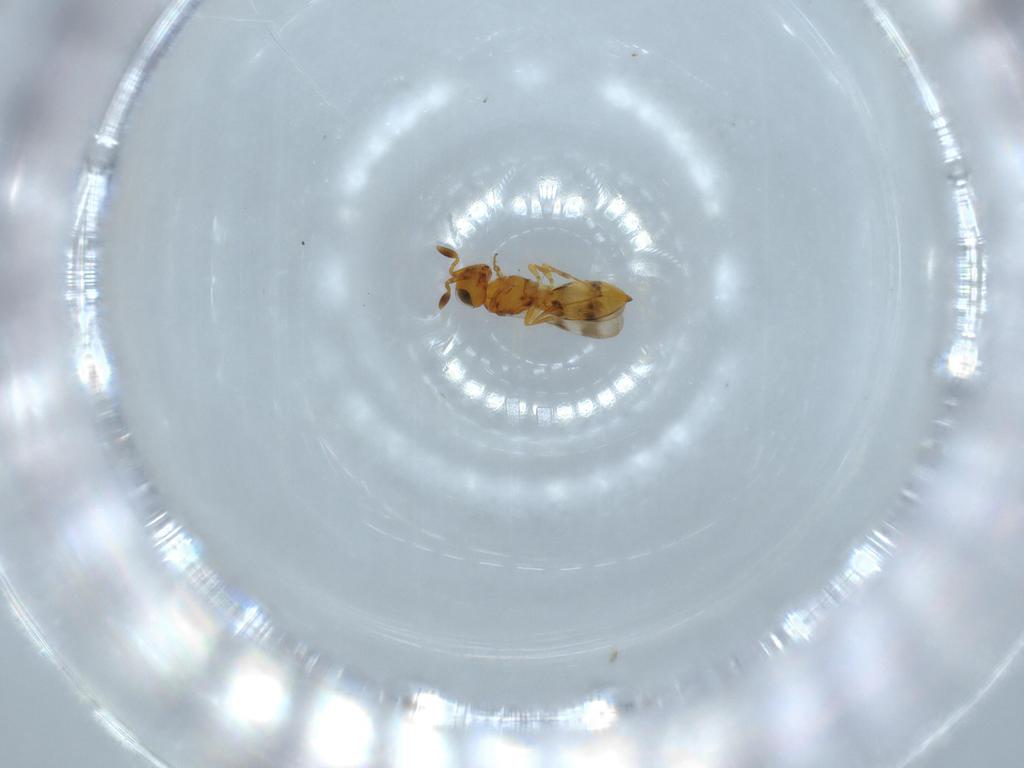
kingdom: Animalia
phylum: Arthropoda
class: Insecta
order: Hymenoptera
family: Scelionidae
